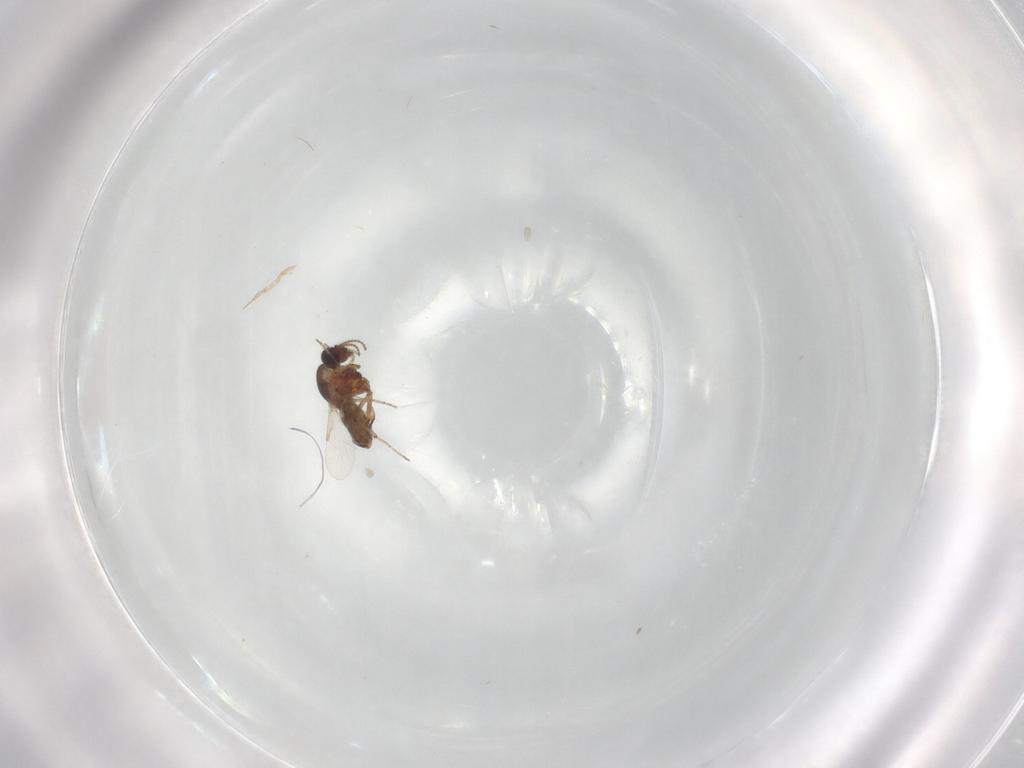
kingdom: Animalia
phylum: Arthropoda
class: Insecta
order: Diptera
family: Ceratopogonidae
